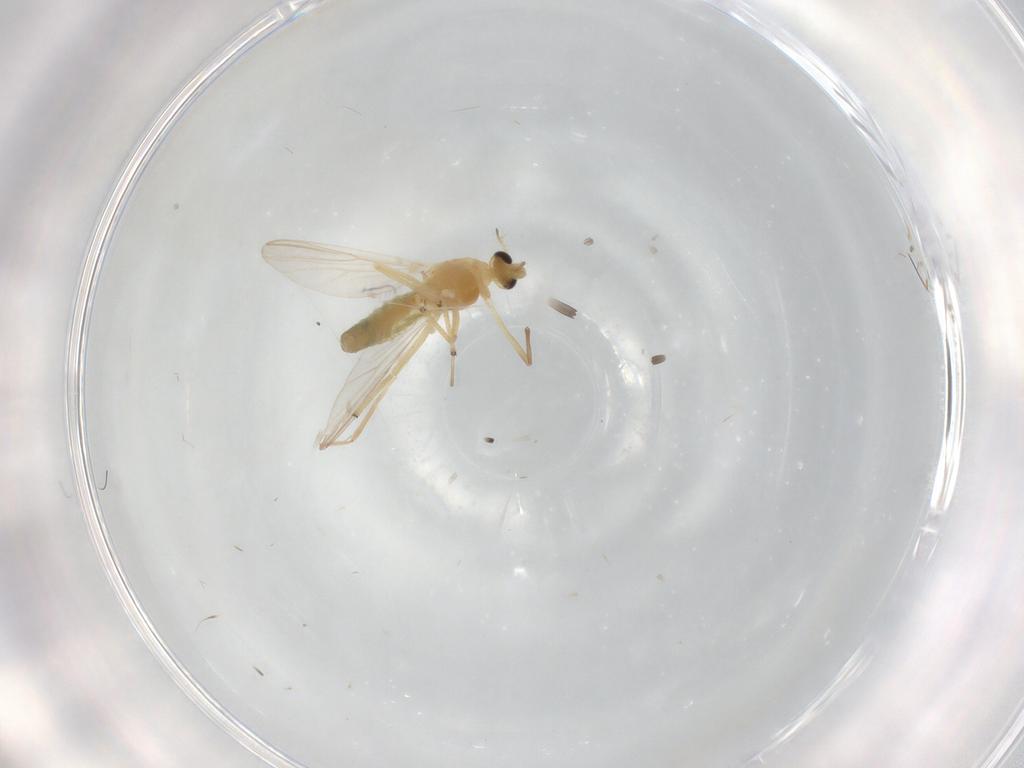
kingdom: Animalia
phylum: Arthropoda
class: Insecta
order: Diptera
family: Chironomidae
